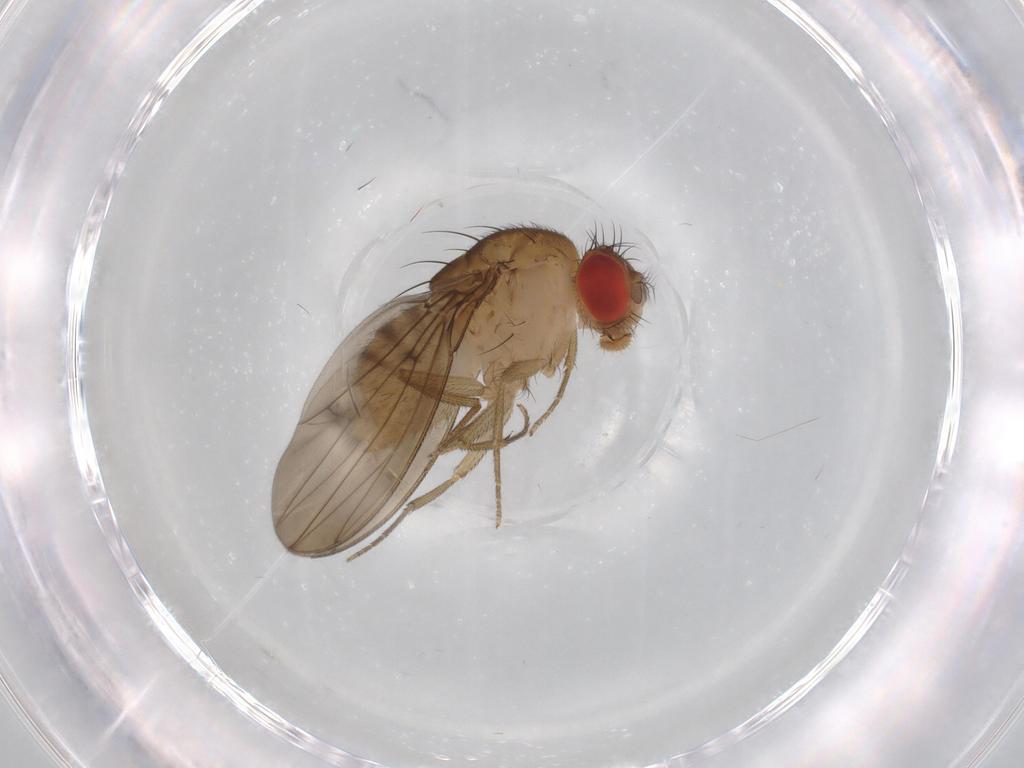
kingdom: Animalia
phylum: Arthropoda
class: Insecta
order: Diptera
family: Drosophilidae
